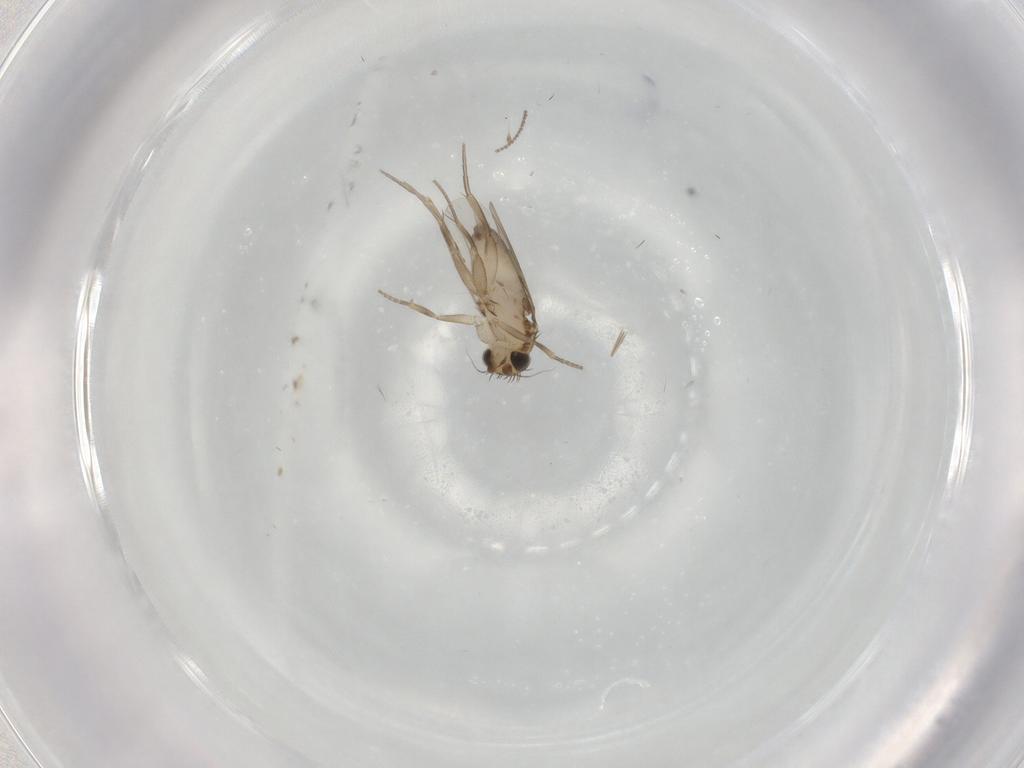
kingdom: Animalia
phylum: Arthropoda
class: Insecta
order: Diptera
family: Phoridae
